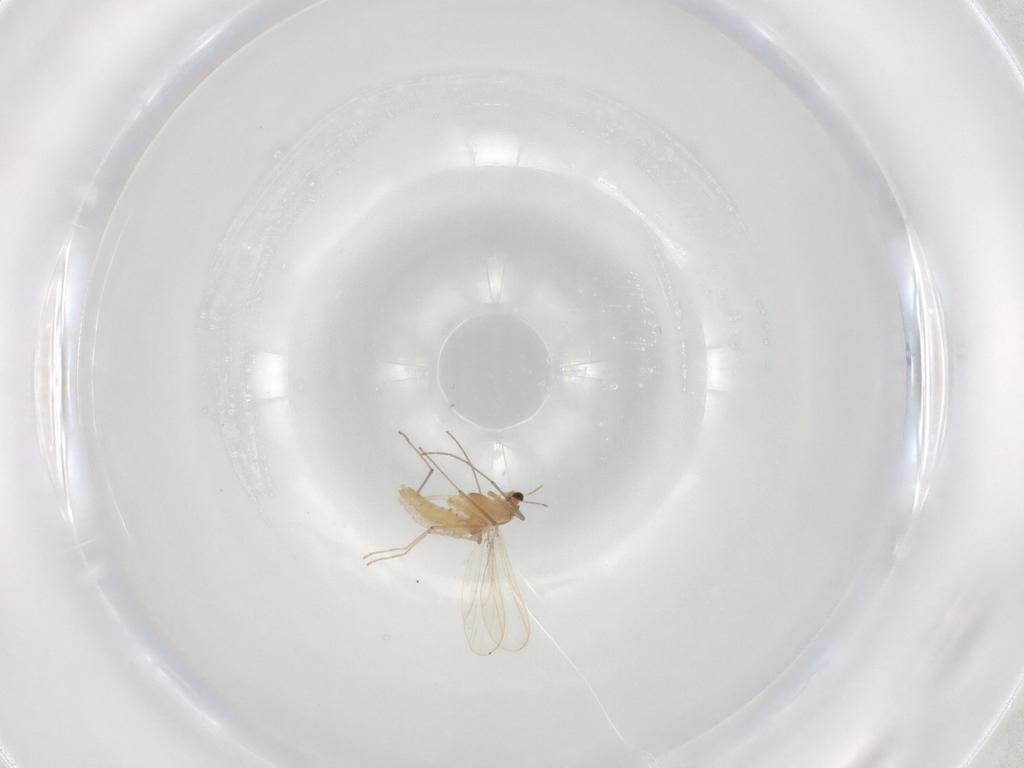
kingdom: Animalia
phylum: Arthropoda
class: Insecta
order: Diptera
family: Chironomidae
